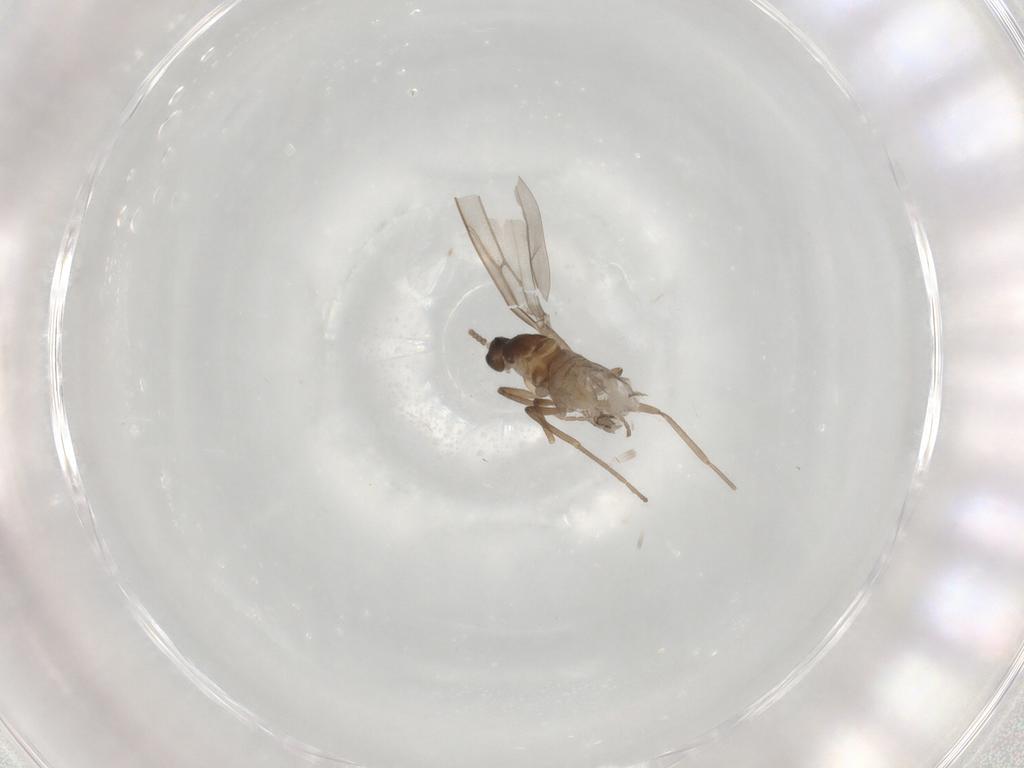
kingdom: Animalia
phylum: Arthropoda
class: Insecta
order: Diptera
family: Cecidomyiidae
